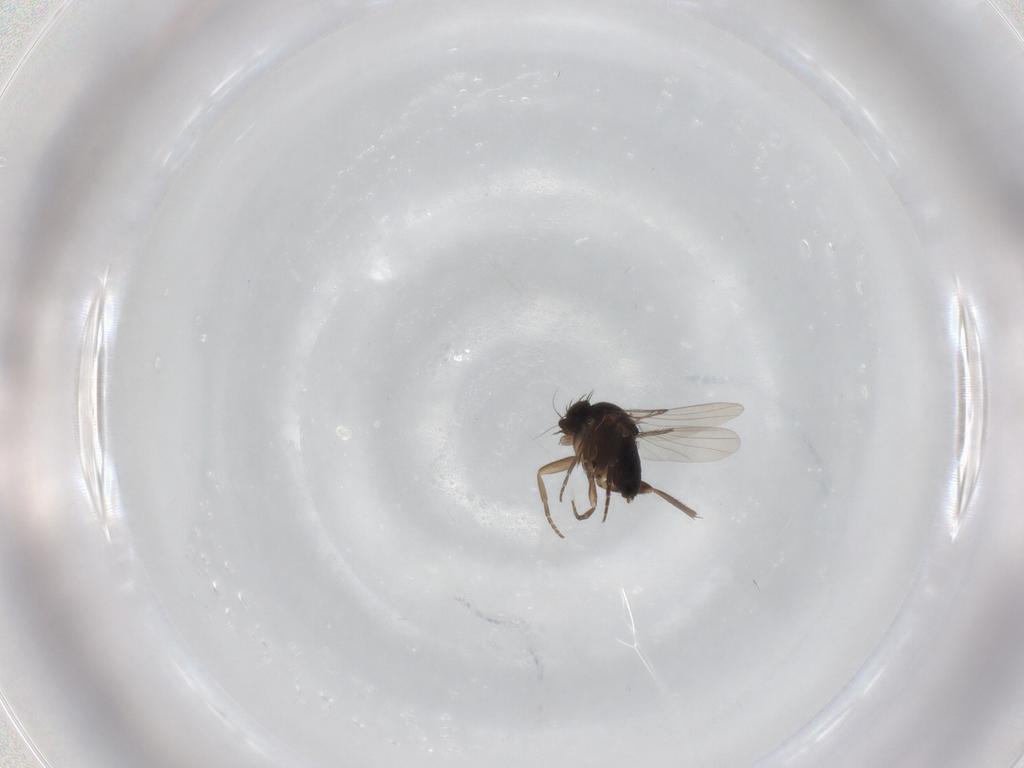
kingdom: Animalia
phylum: Arthropoda
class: Insecta
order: Diptera
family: Phoridae
